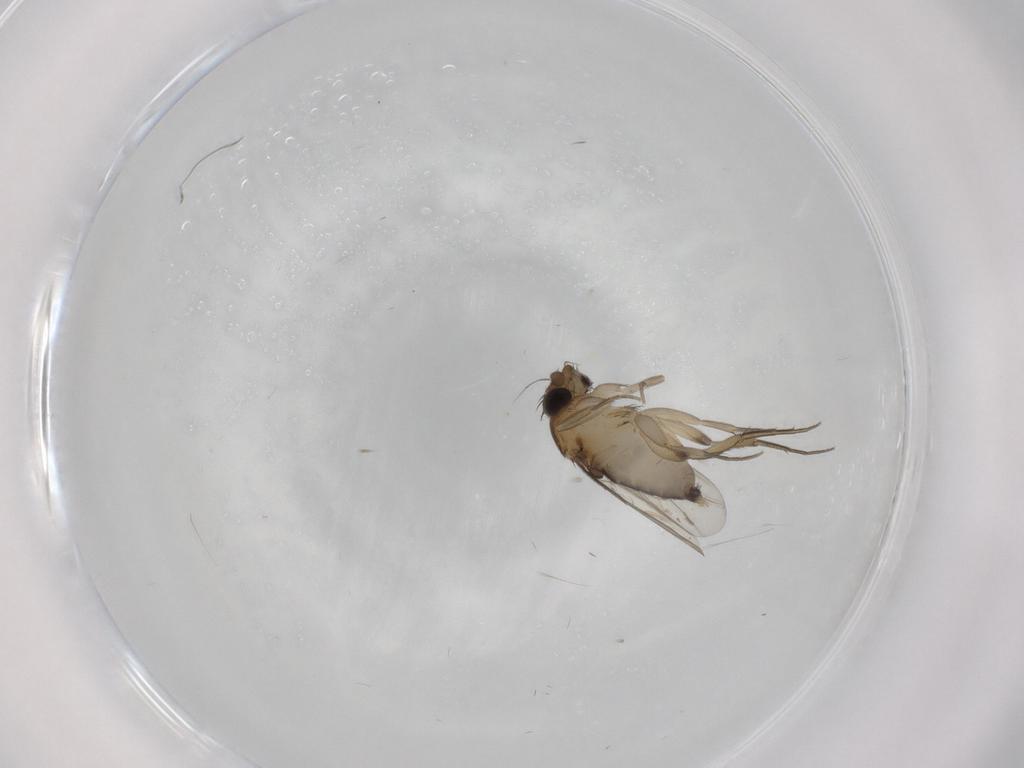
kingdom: Animalia
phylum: Arthropoda
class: Insecta
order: Diptera
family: Phoridae
